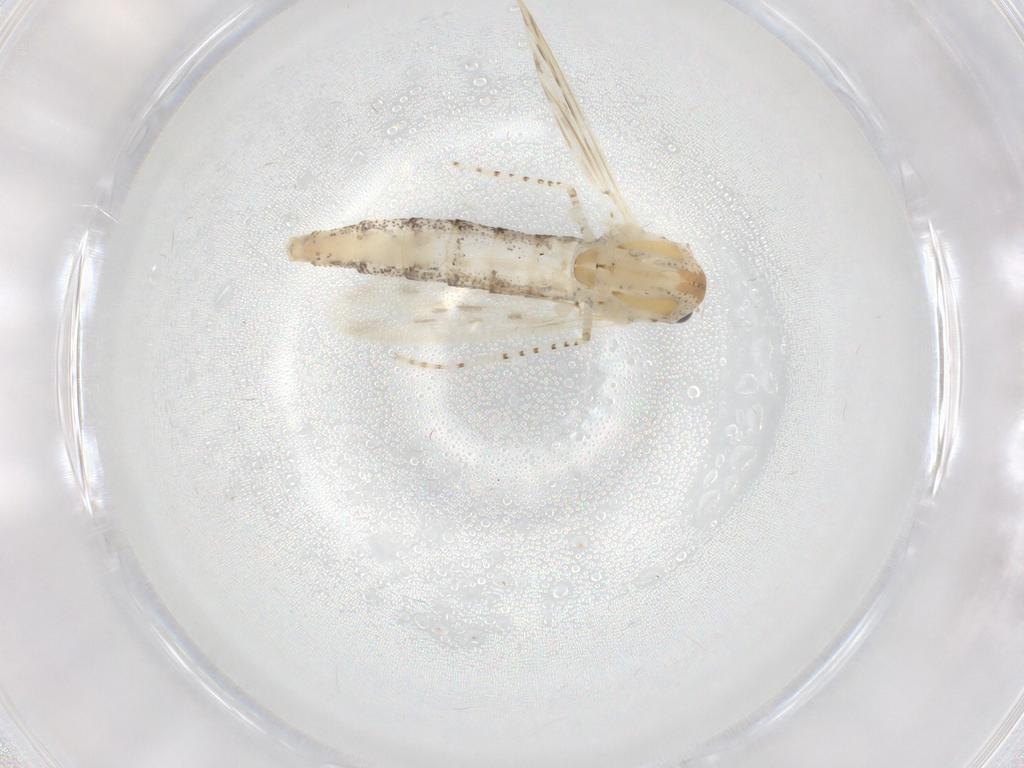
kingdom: Animalia
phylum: Arthropoda
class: Insecta
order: Diptera
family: Chaoboridae
